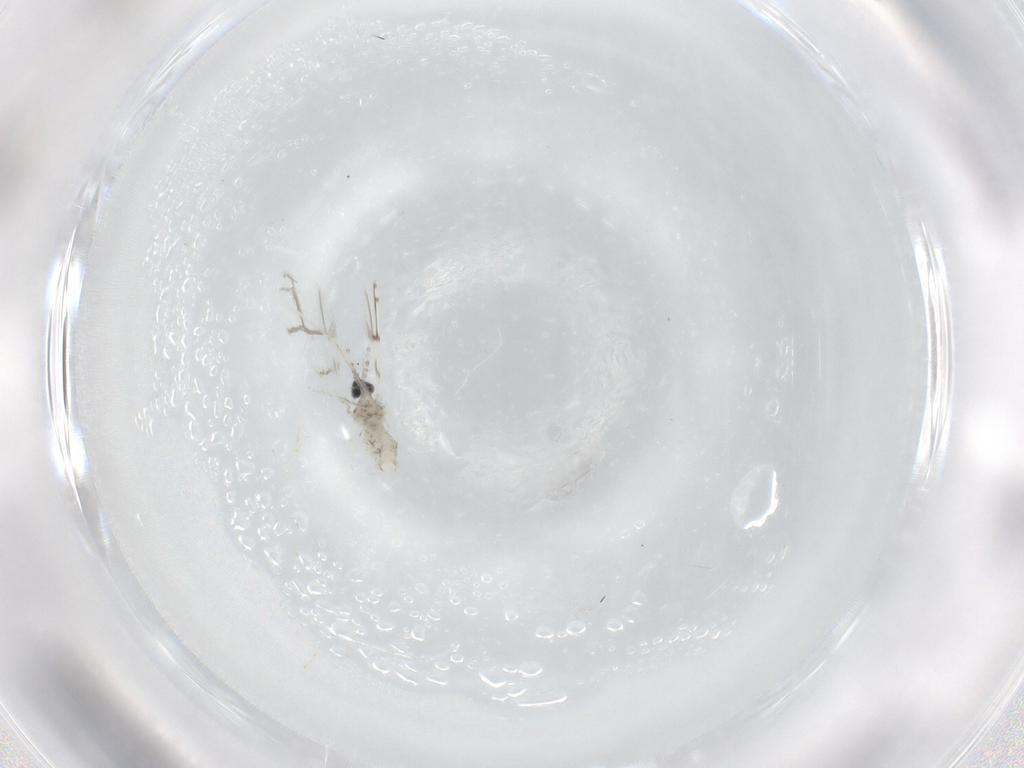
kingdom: Animalia
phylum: Arthropoda
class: Insecta
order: Diptera
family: Cecidomyiidae
